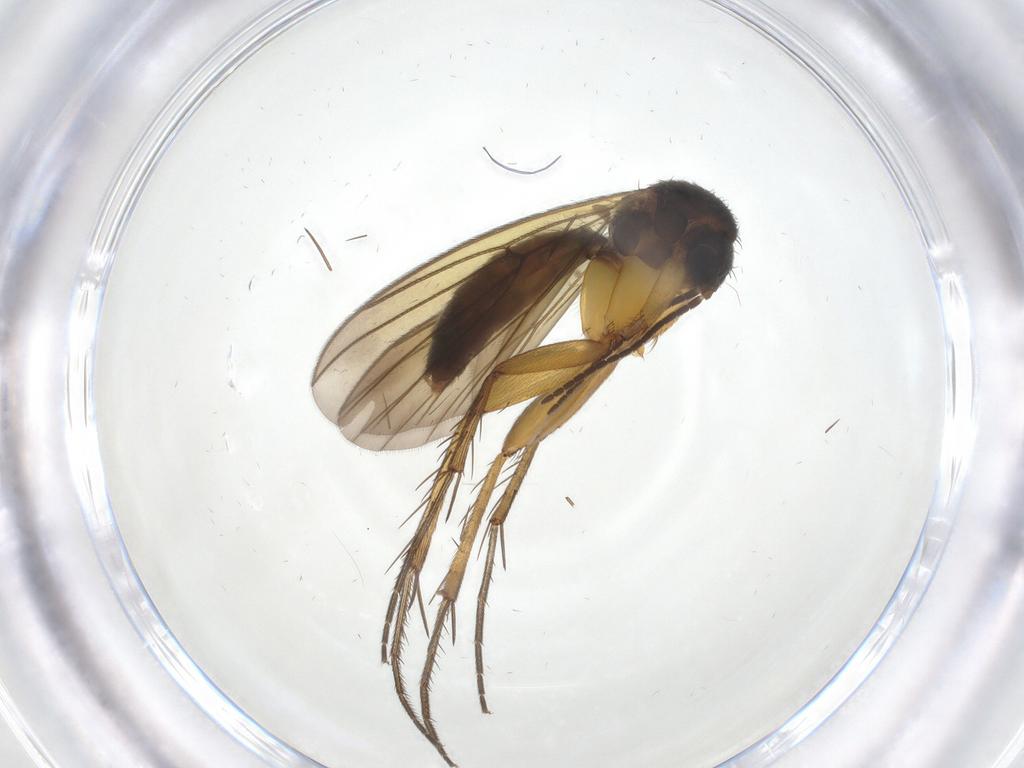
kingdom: Animalia
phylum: Arthropoda
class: Insecta
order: Diptera
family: Mycetophilidae
